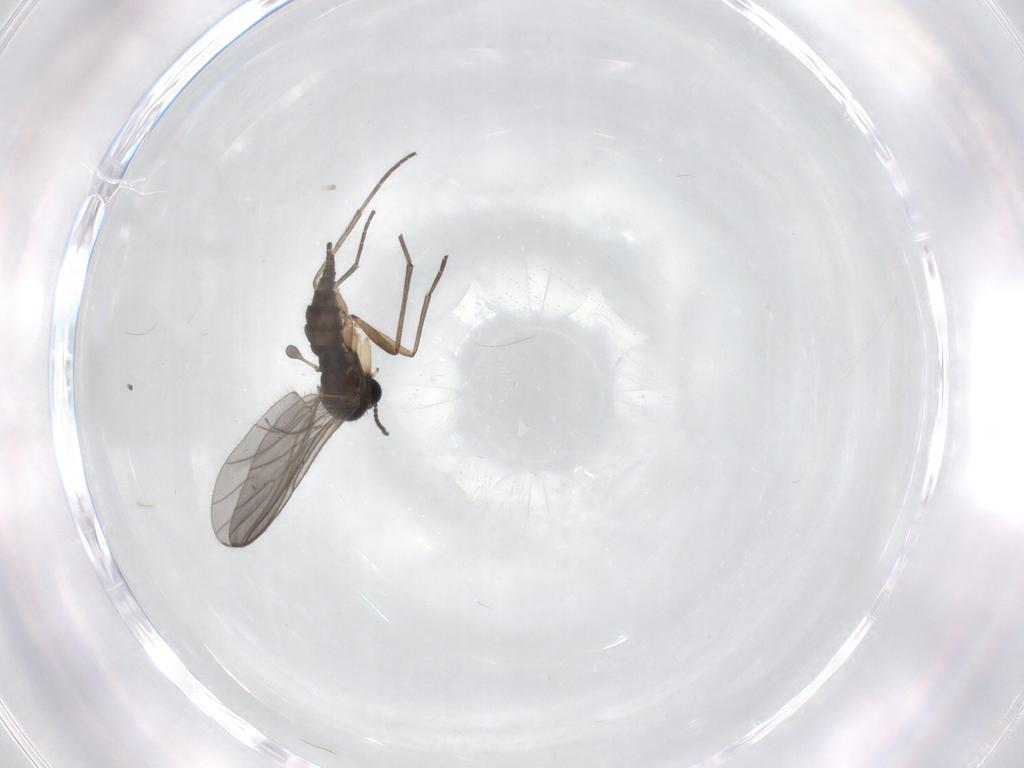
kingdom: Animalia
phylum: Arthropoda
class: Insecta
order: Diptera
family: Sciaridae
